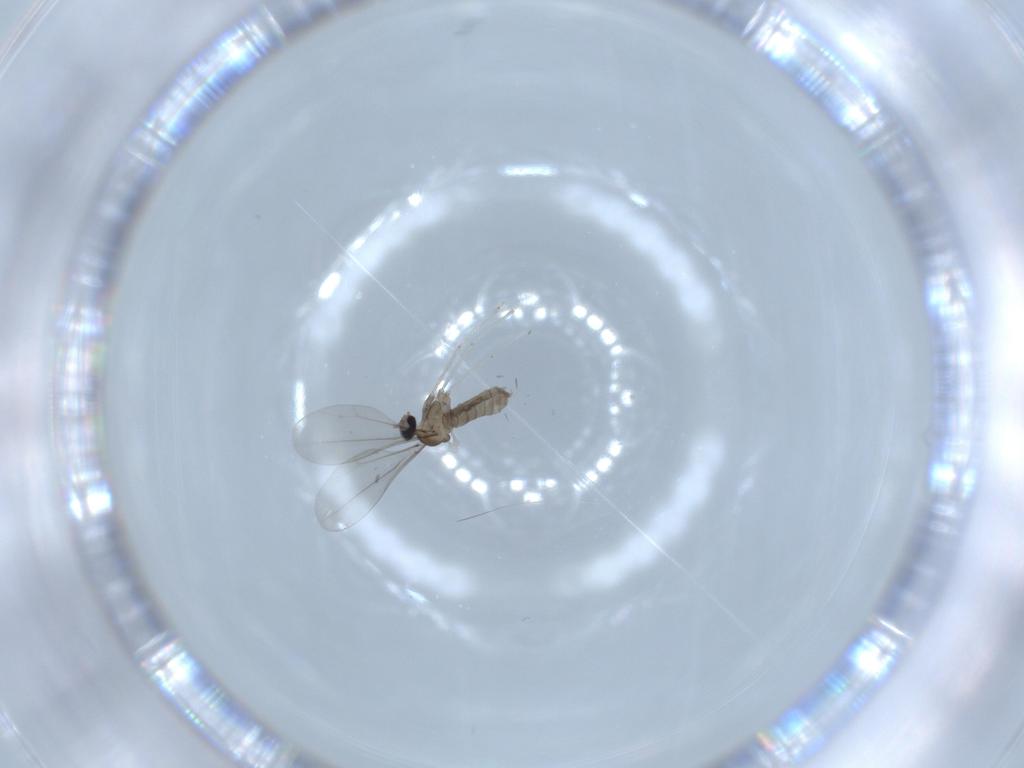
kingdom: Animalia
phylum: Arthropoda
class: Insecta
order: Diptera
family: Cecidomyiidae
